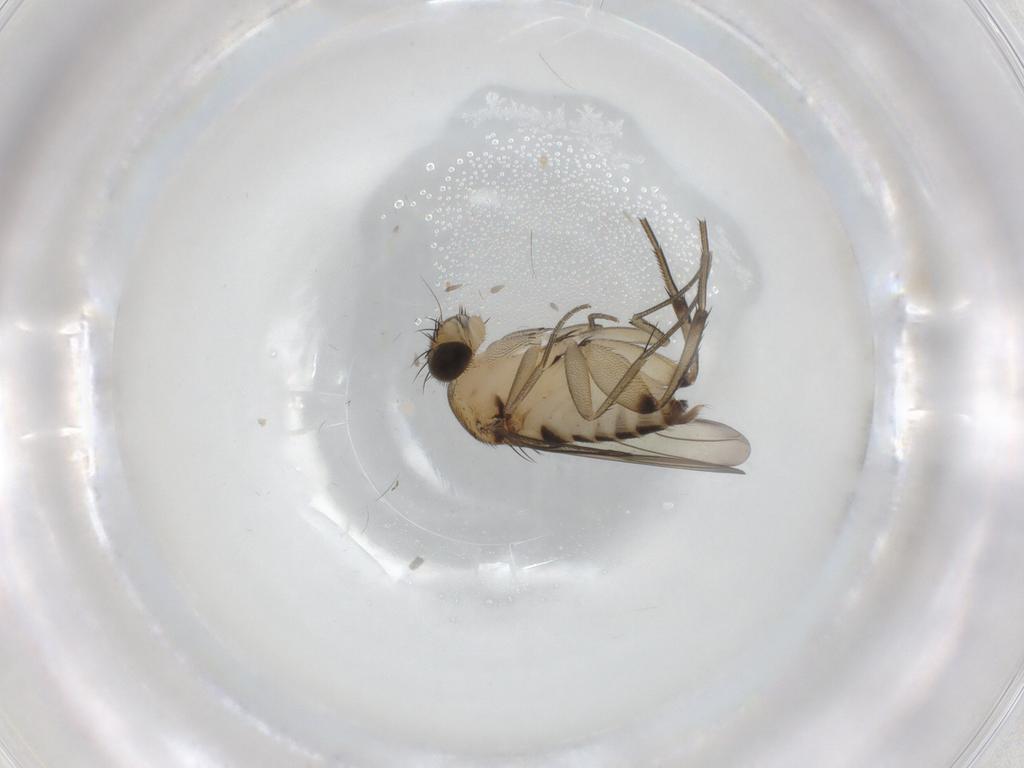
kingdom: Animalia
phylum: Arthropoda
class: Insecta
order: Diptera
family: Phoridae
